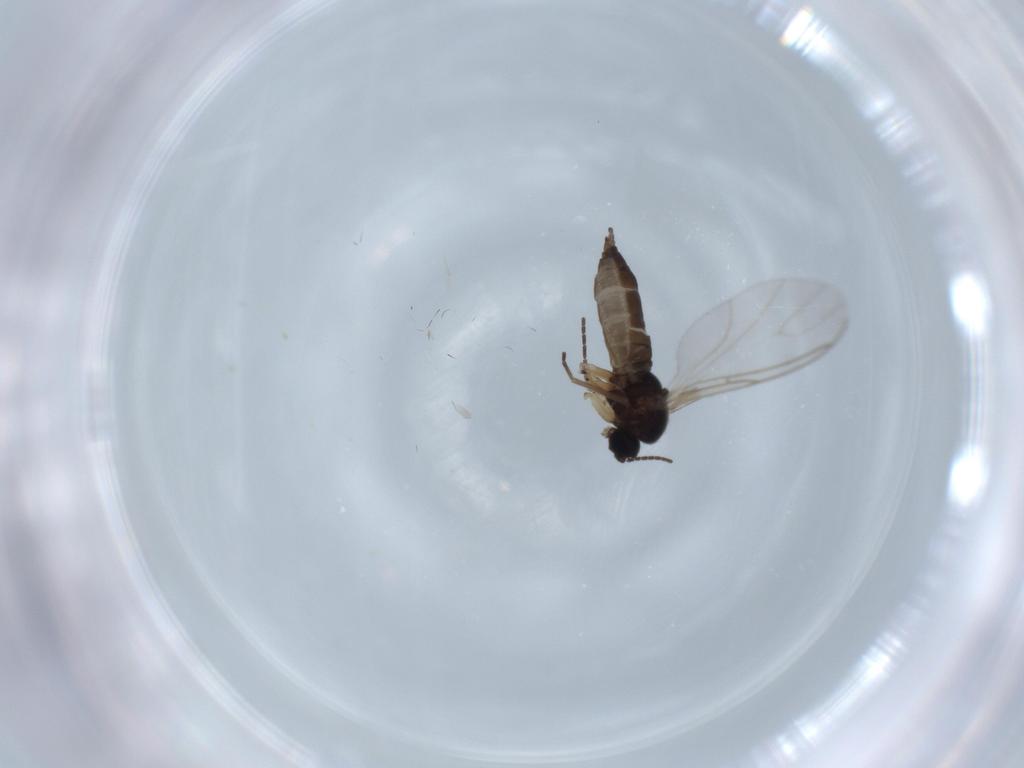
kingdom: Animalia
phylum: Arthropoda
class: Insecta
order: Diptera
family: Sciaridae
